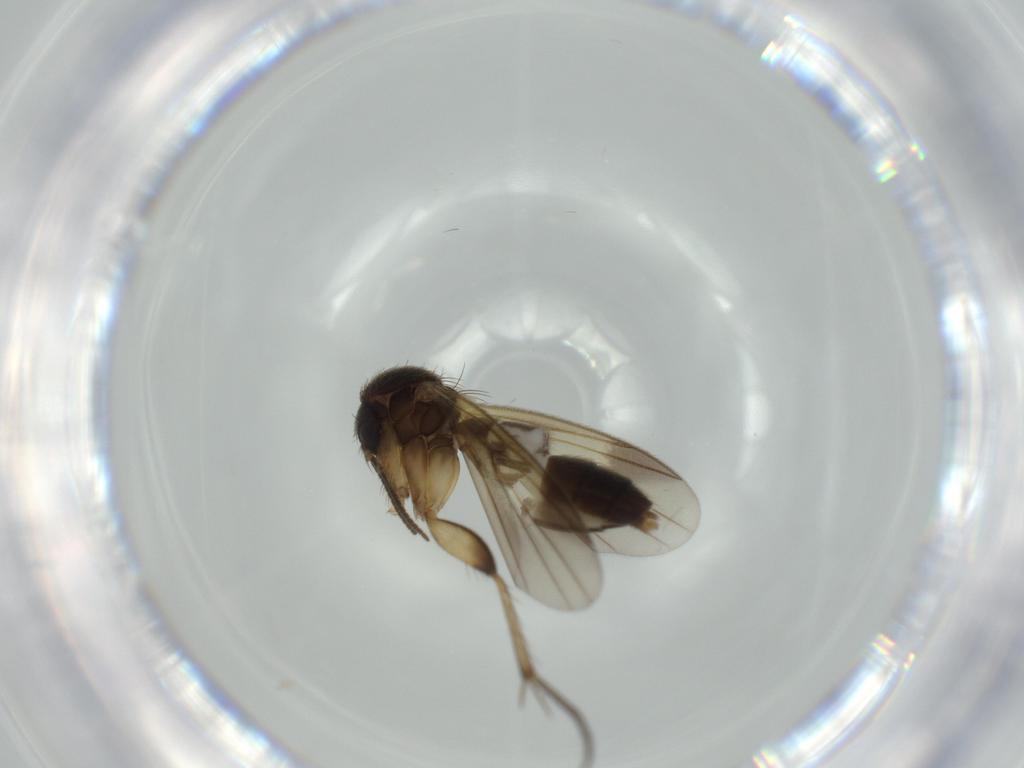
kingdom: Animalia
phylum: Arthropoda
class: Insecta
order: Diptera
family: Mycetophilidae
